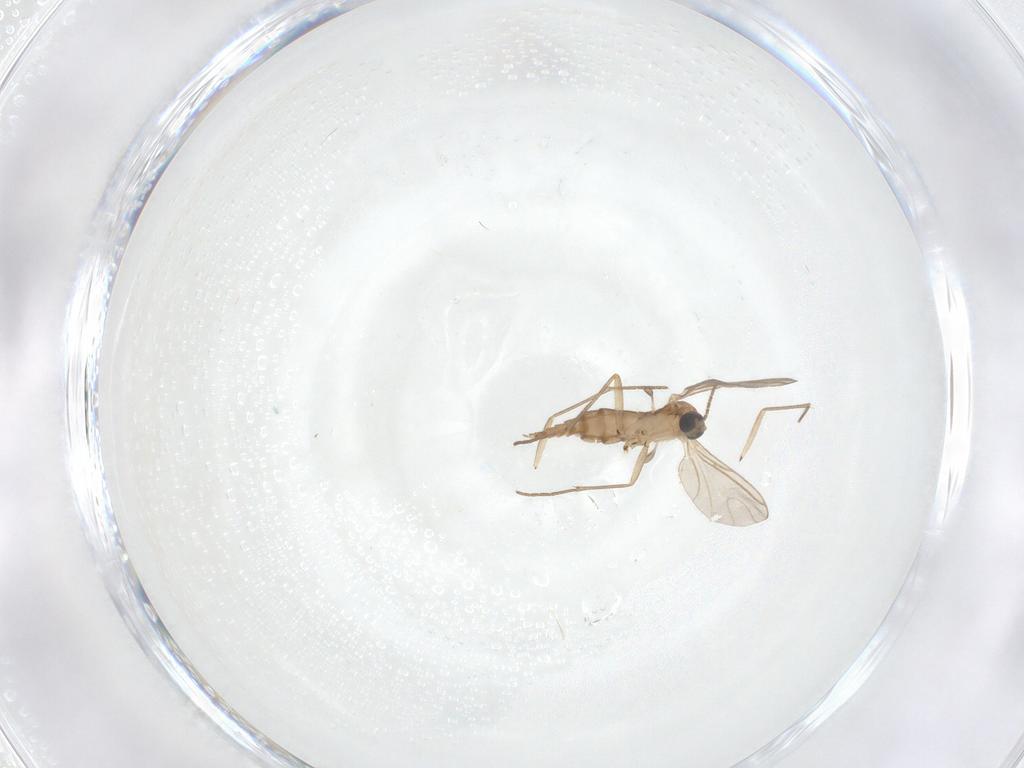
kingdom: Animalia
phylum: Arthropoda
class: Insecta
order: Diptera
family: Sciaridae
